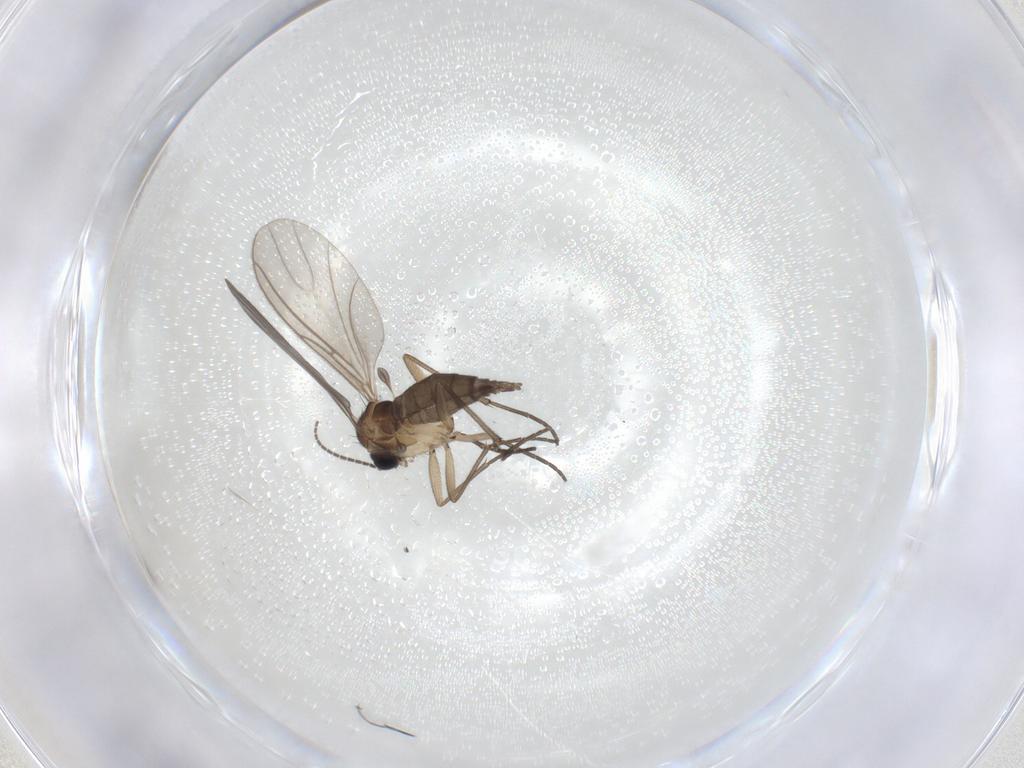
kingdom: Animalia
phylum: Arthropoda
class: Insecta
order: Diptera
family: Sciaridae
